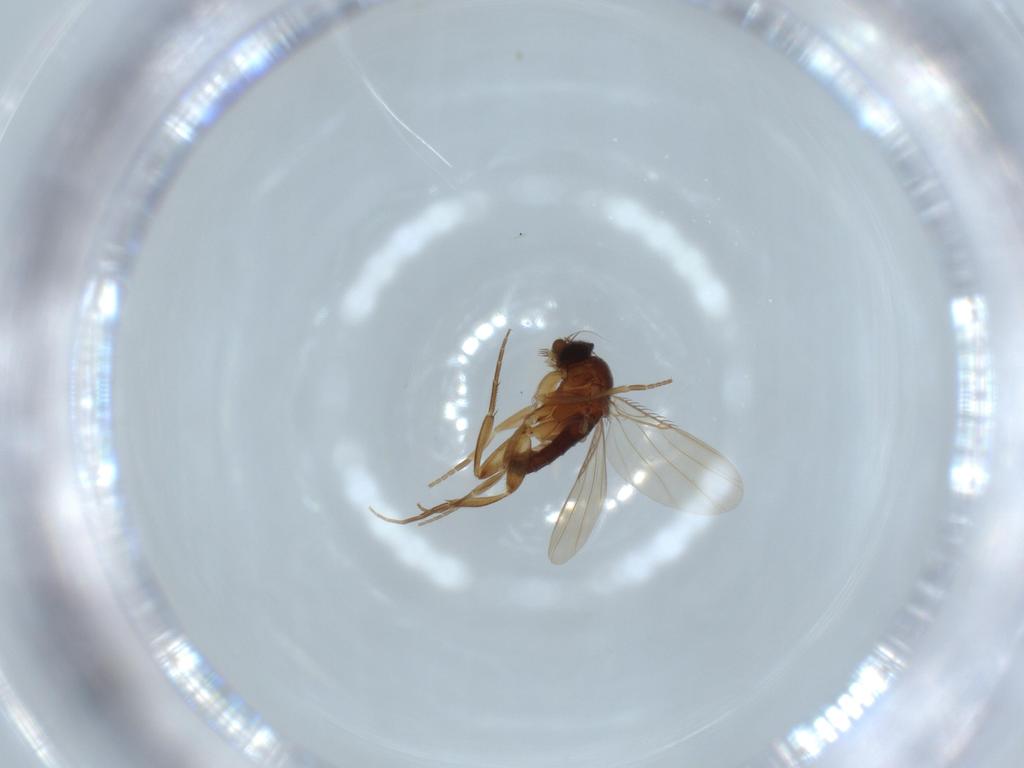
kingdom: Animalia
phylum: Arthropoda
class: Insecta
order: Diptera
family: Phoridae
